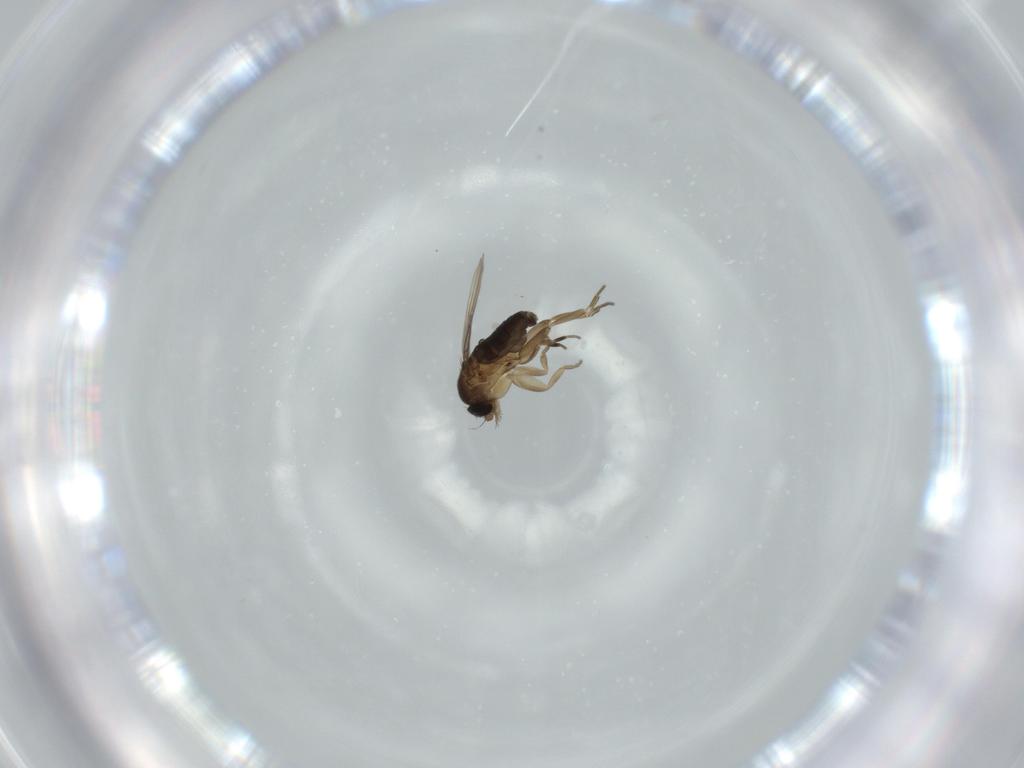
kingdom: Animalia
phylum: Arthropoda
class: Insecta
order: Diptera
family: Phoridae
